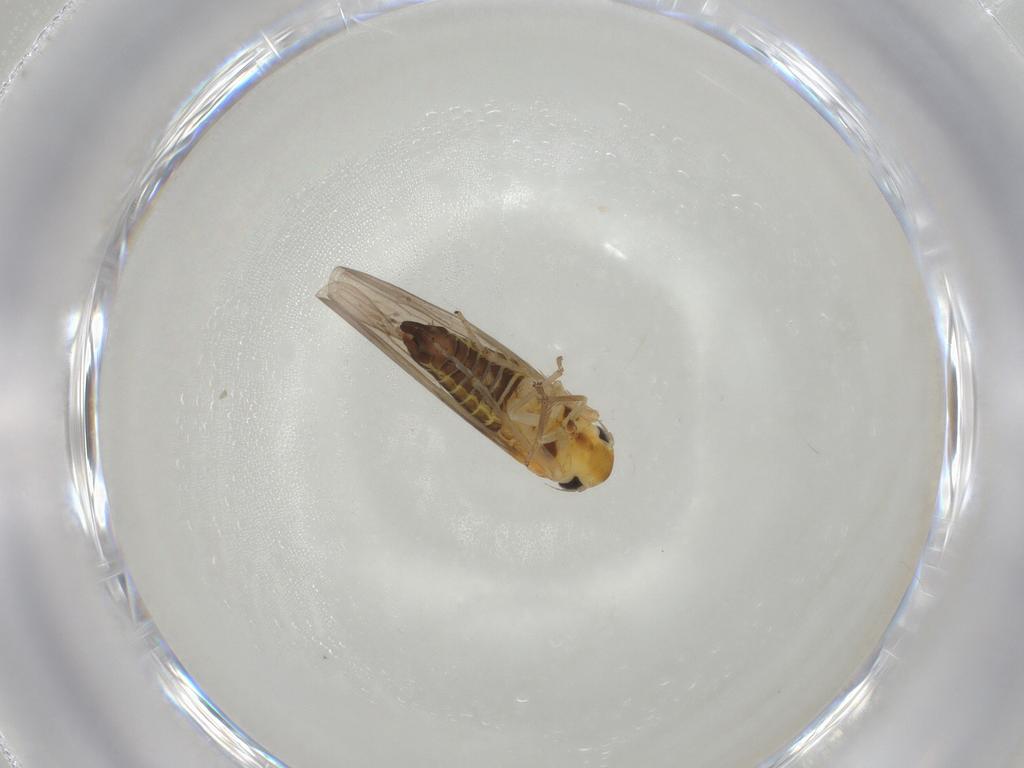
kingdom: Animalia
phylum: Arthropoda
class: Insecta
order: Hemiptera
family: Cicadellidae
